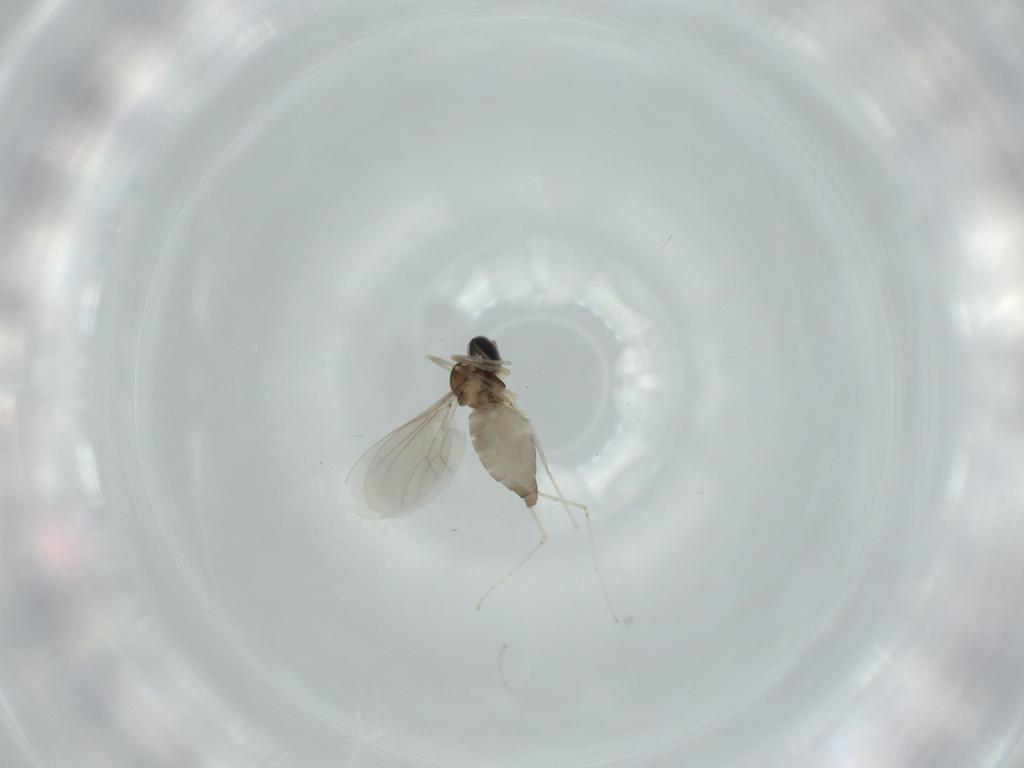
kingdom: Animalia
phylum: Arthropoda
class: Insecta
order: Diptera
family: Cecidomyiidae
